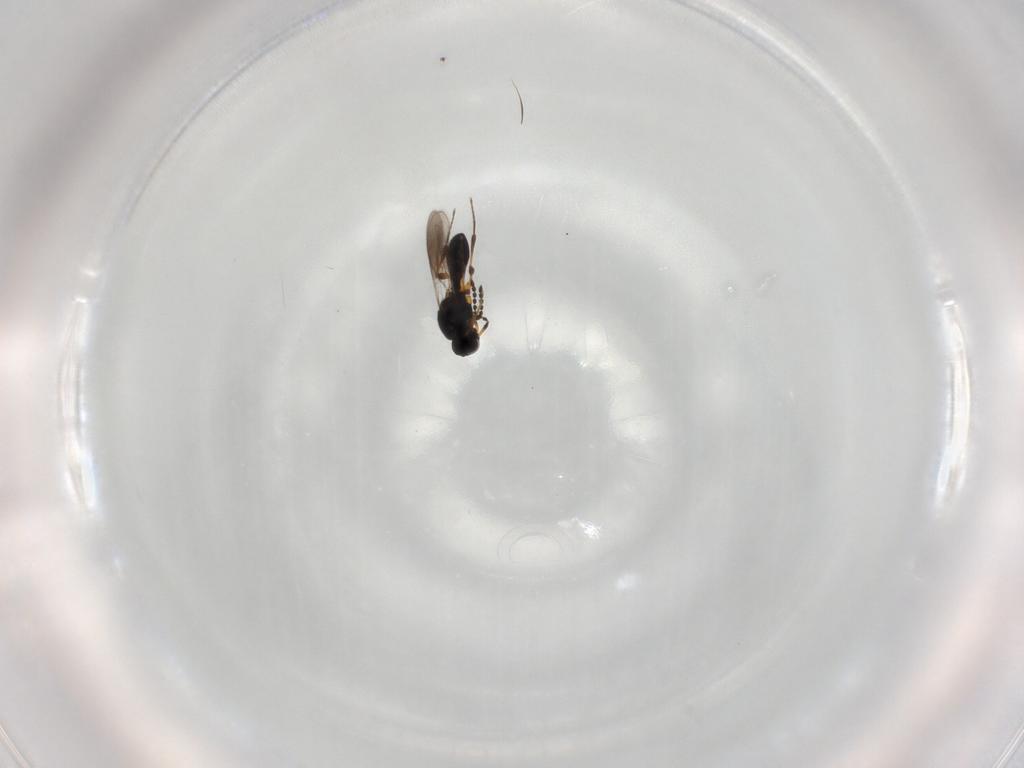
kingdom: Animalia
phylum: Arthropoda
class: Insecta
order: Hymenoptera
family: Platygastridae
